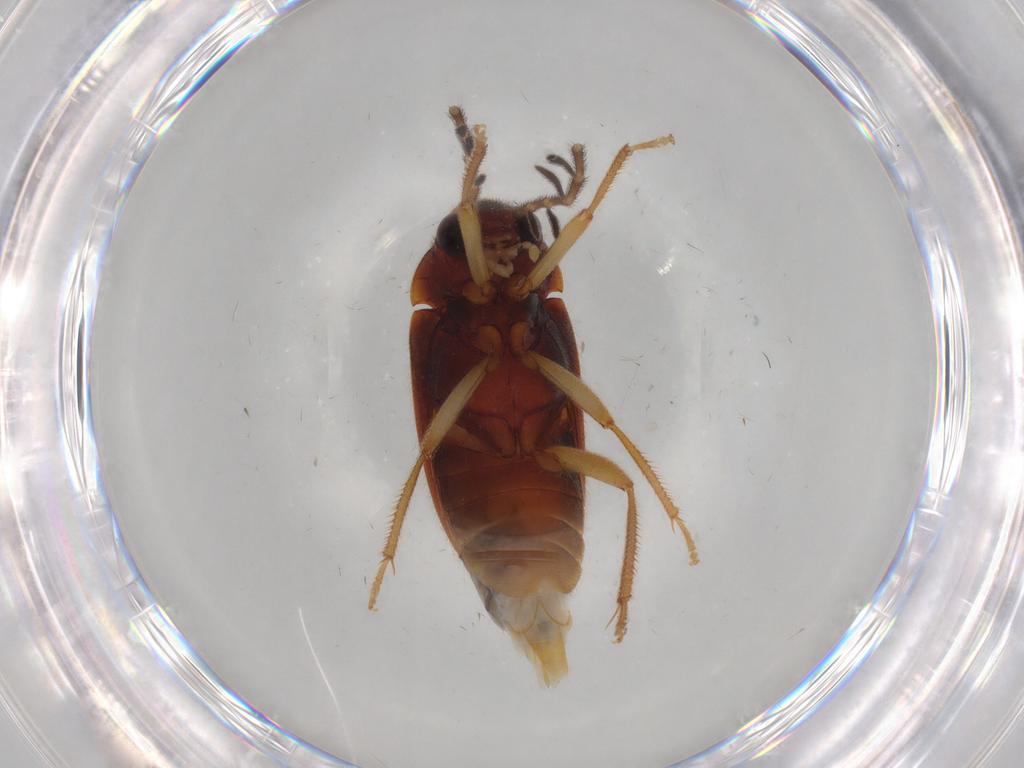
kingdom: Animalia
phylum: Arthropoda
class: Insecta
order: Coleoptera
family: Ptilodactylidae
